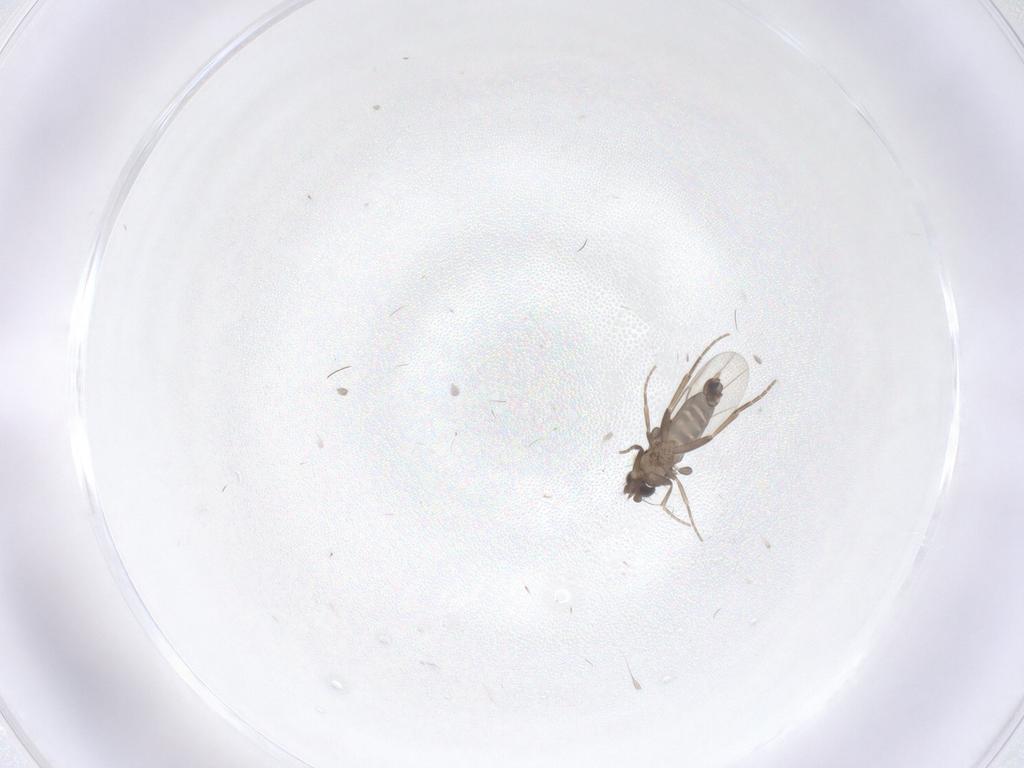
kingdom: Animalia
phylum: Arthropoda
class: Insecta
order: Diptera
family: Phoridae
